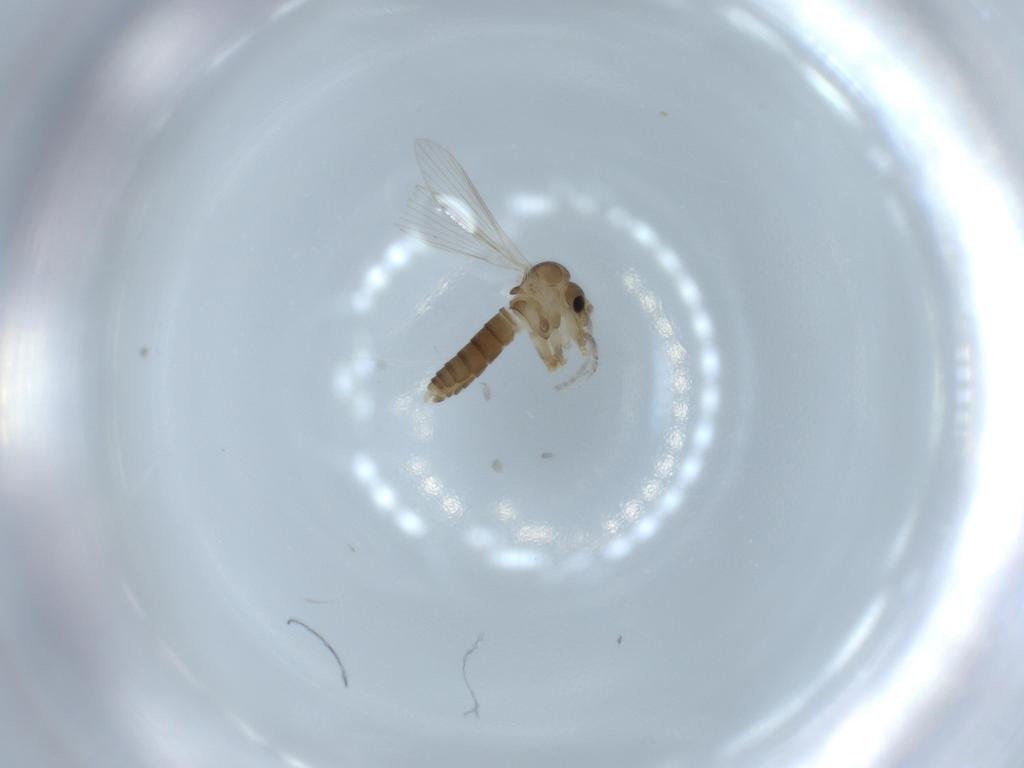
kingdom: Animalia
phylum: Arthropoda
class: Insecta
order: Diptera
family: Psychodidae
